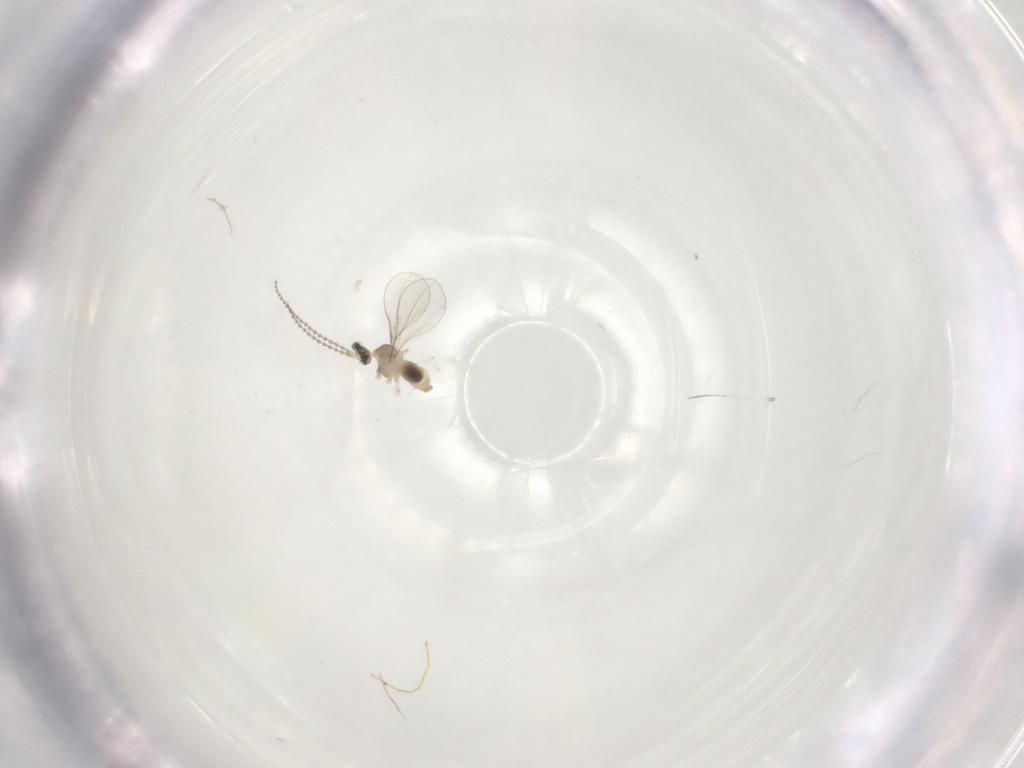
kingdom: Animalia
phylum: Arthropoda
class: Insecta
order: Diptera
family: Cecidomyiidae
